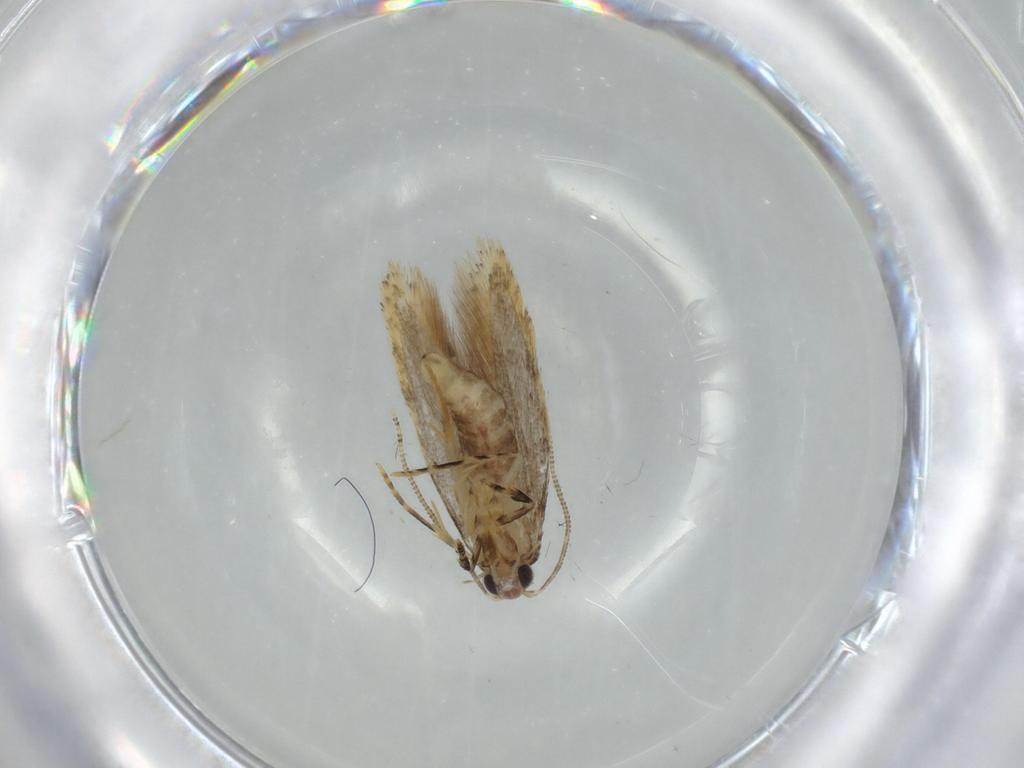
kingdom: Animalia
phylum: Arthropoda
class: Insecta
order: Lepidoptera
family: Tineidae
